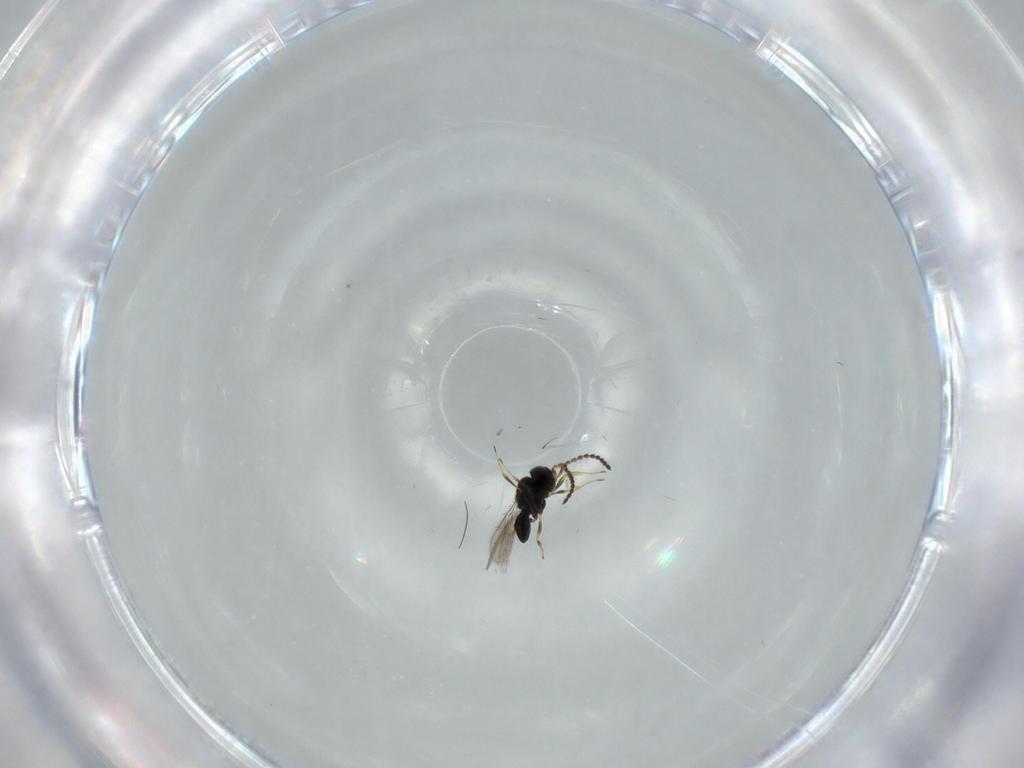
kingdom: Animalia
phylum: Arthropoda
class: Insecta
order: Hymenoptera
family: Scelionidae
